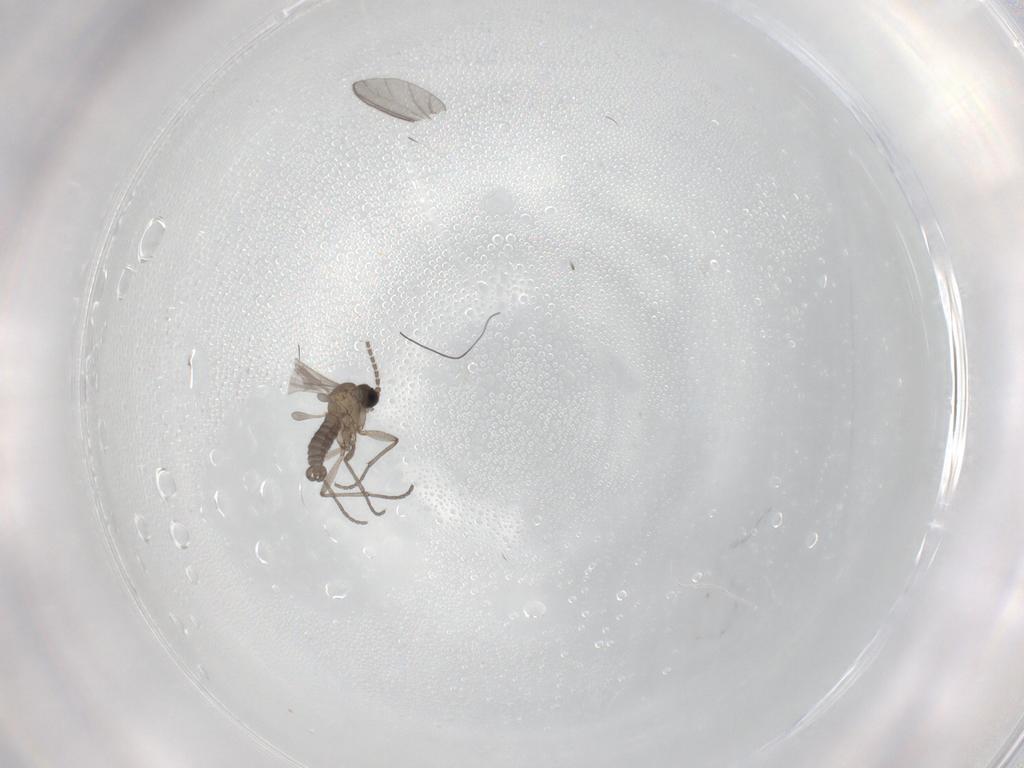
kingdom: Animalia
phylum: Arthropoda
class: Insecta
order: Diptera
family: Sciaridae
